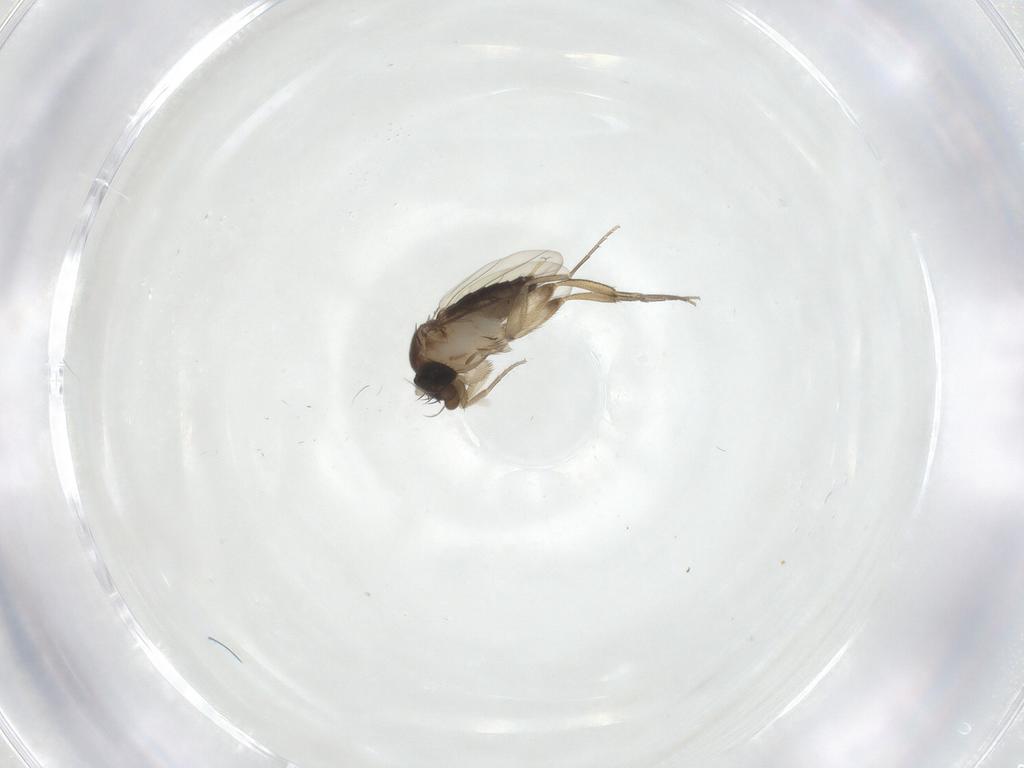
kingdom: Animalia
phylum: Arthropoda
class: Insecta
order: Diptera
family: Phoridae
